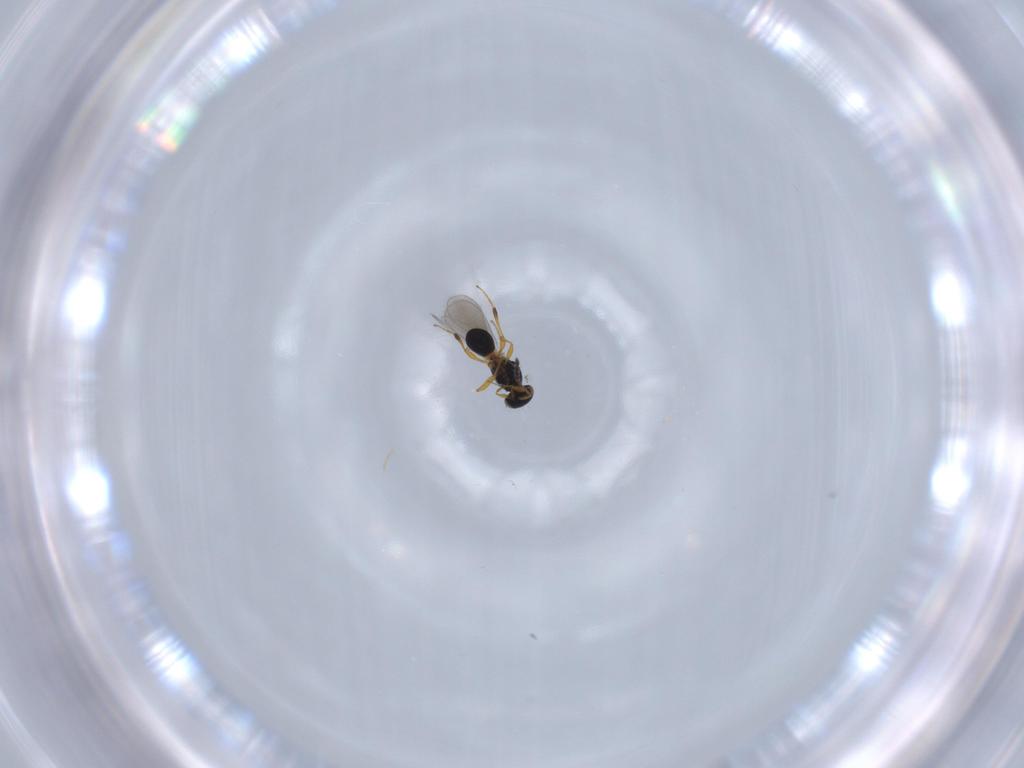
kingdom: Animalia
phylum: Arthropoda
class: Insecta
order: Hymenoptera
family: Platygastridae
